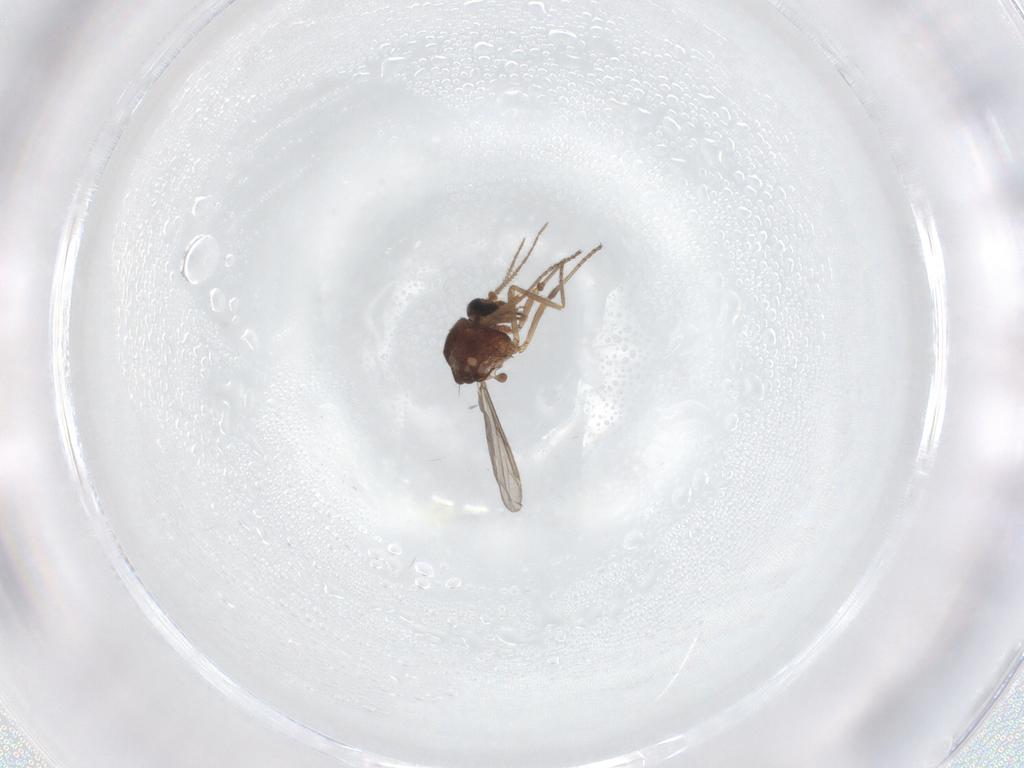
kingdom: Animalia
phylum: Arthropoda
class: Insecta
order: Diptera
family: Ceratopogonidae
